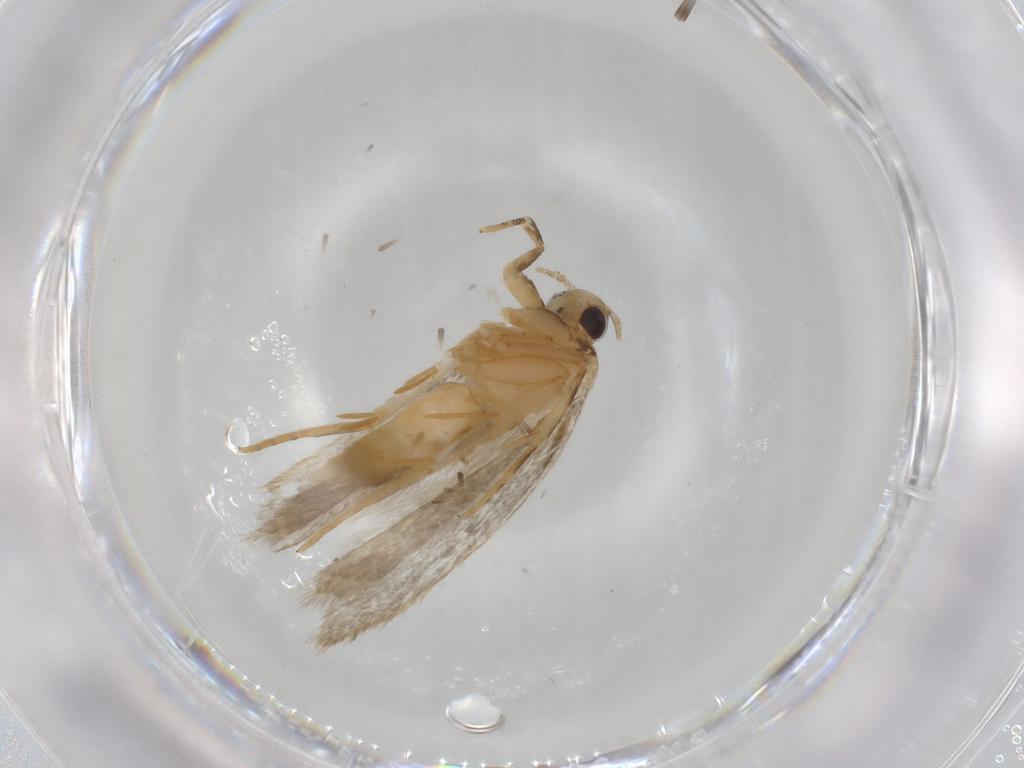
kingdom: Animalia
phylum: Arthropoda
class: Insecta
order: Lepidoptera
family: Autostichidae
